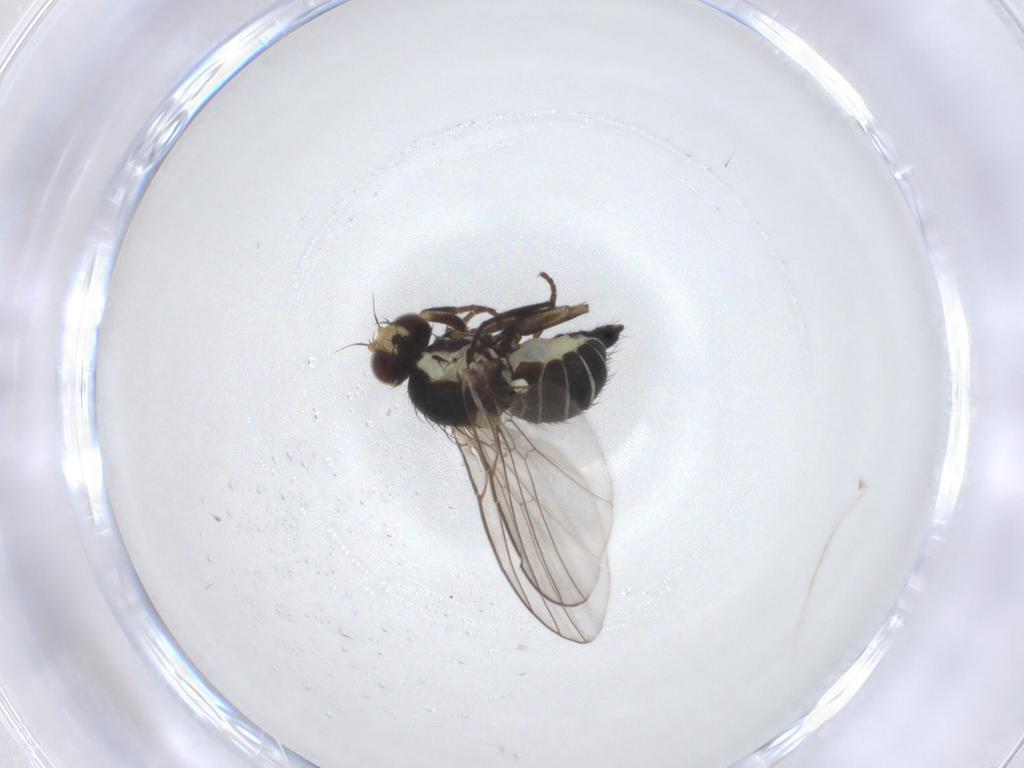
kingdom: Animalia
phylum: Arthropoda
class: Insecta
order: Diptera
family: Agromyzidae
